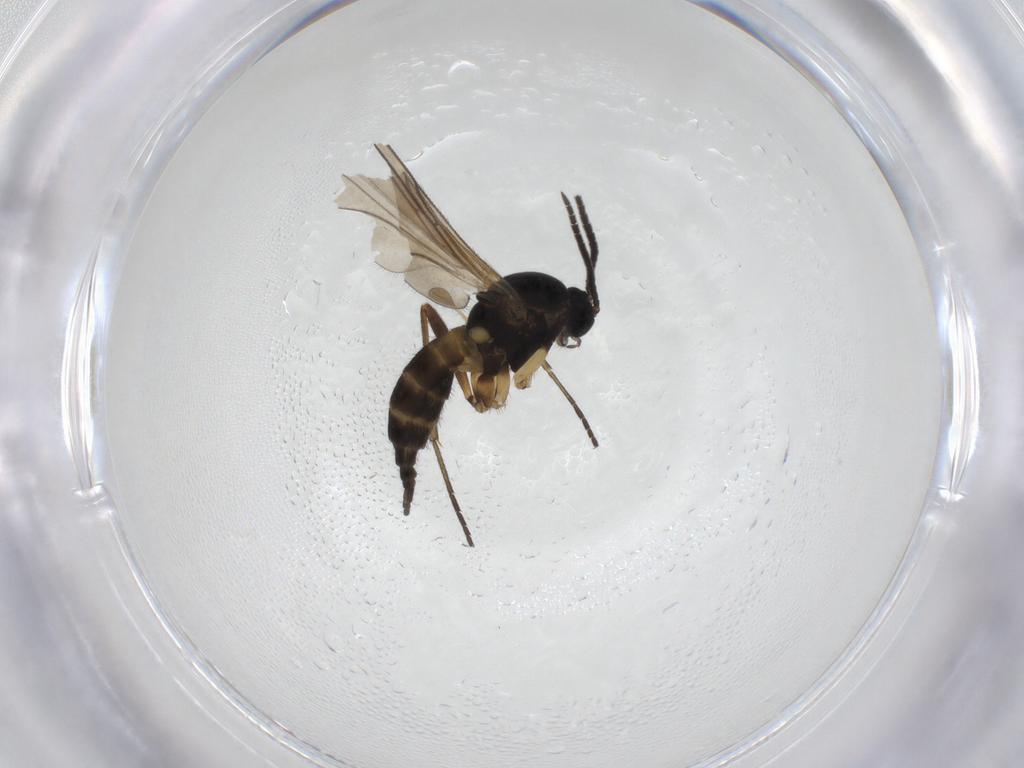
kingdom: Animalia
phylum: Arthropoda
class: Insecta
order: Diptera
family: Sciaridae
